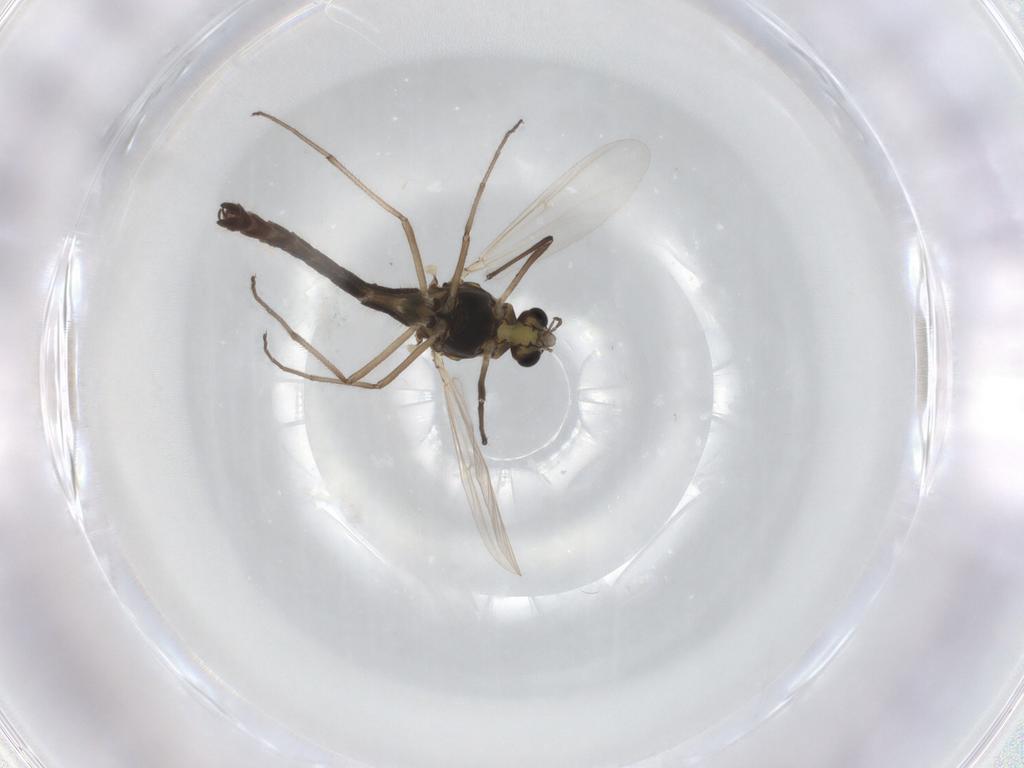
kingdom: Animalia
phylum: Arthropoda
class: Insecta
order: Diptera
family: Chironomidae
